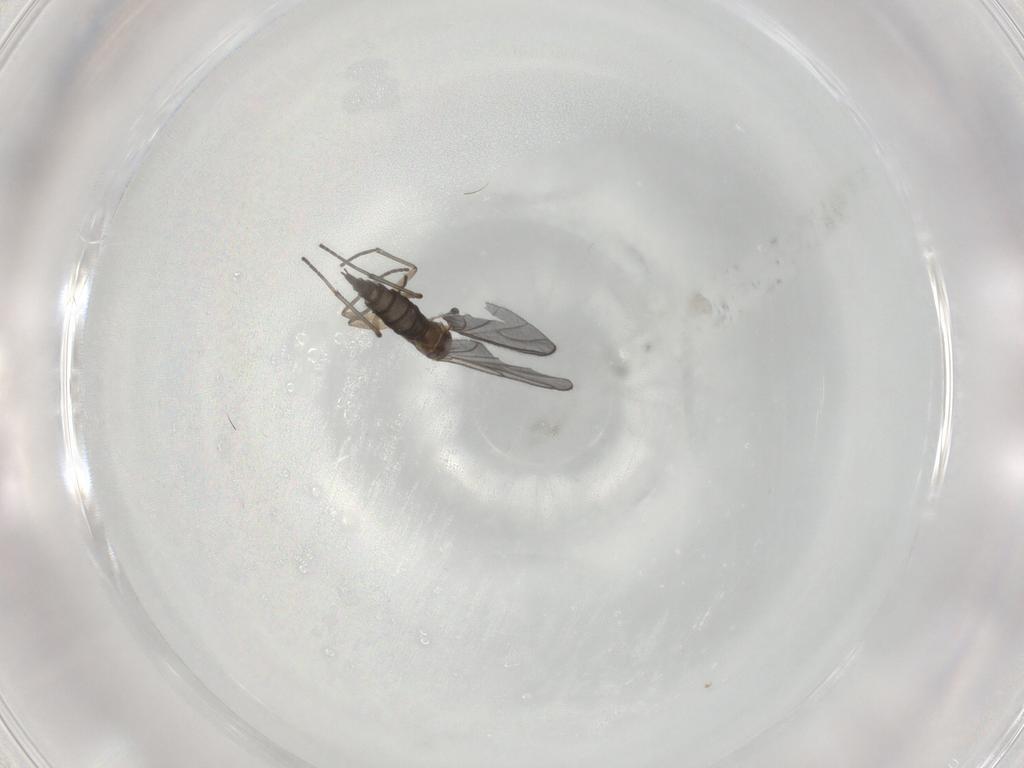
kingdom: Animalia
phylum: Arthropoda
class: Insecta
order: Diptera
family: Sciaridae
